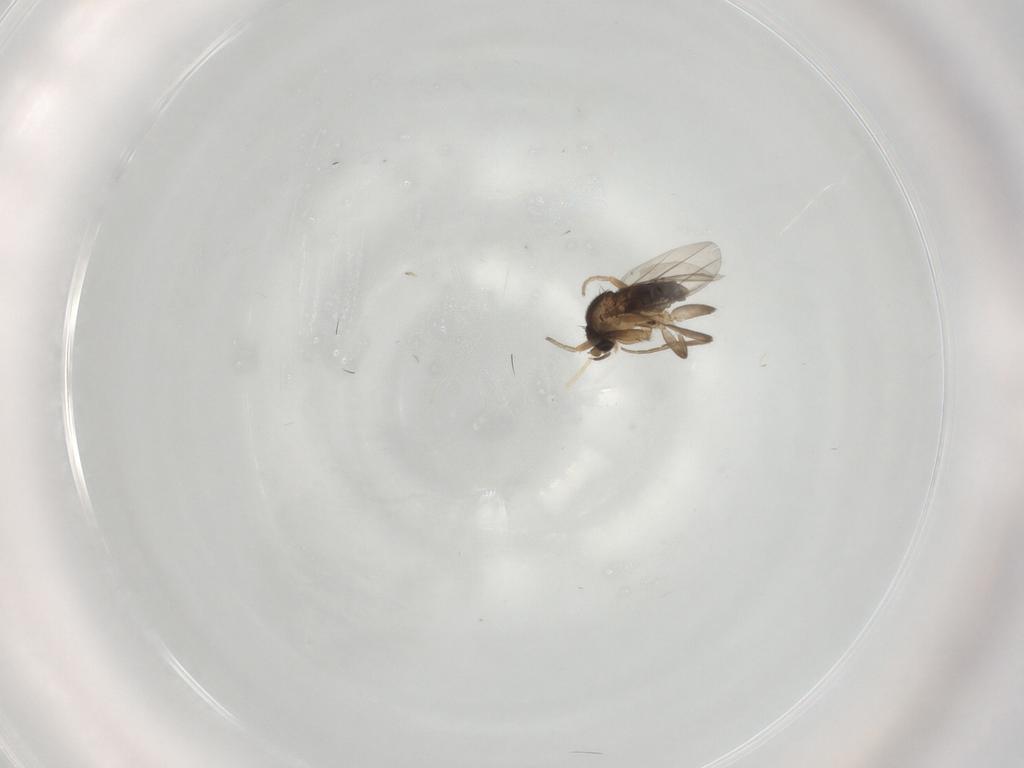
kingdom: Animalia
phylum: Arthropoda
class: Insecta
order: Diptera
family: Phoridae
